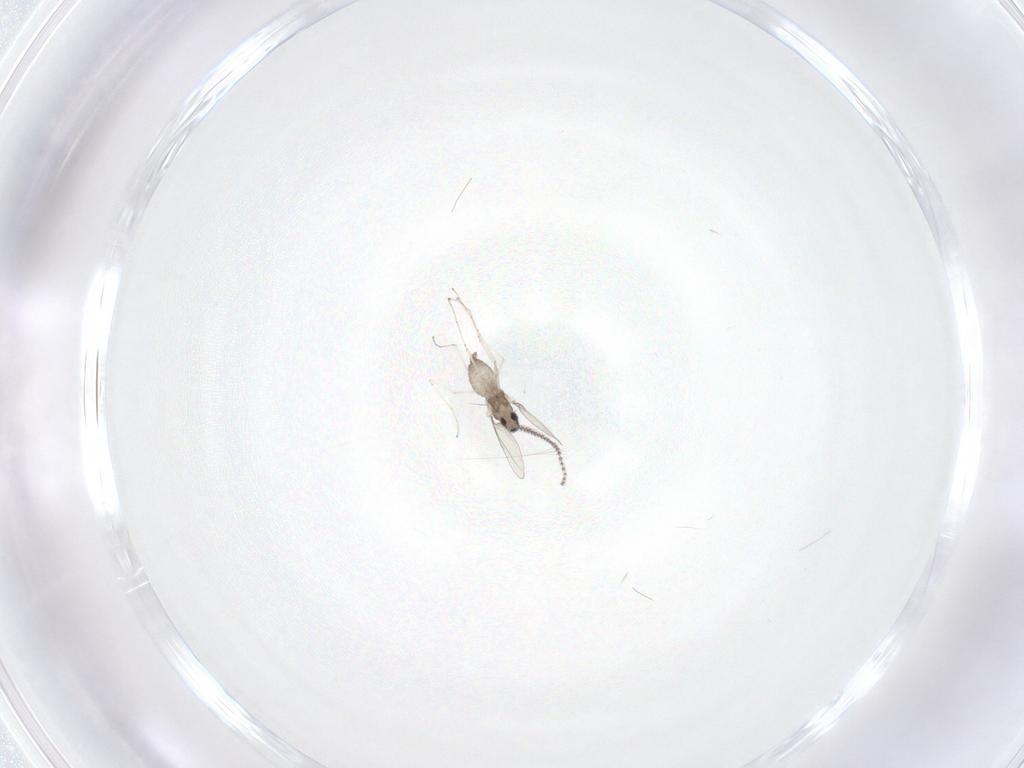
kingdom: Animalia
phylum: Arthropoda
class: Insecta
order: Diptera
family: Cecidomyiidae
